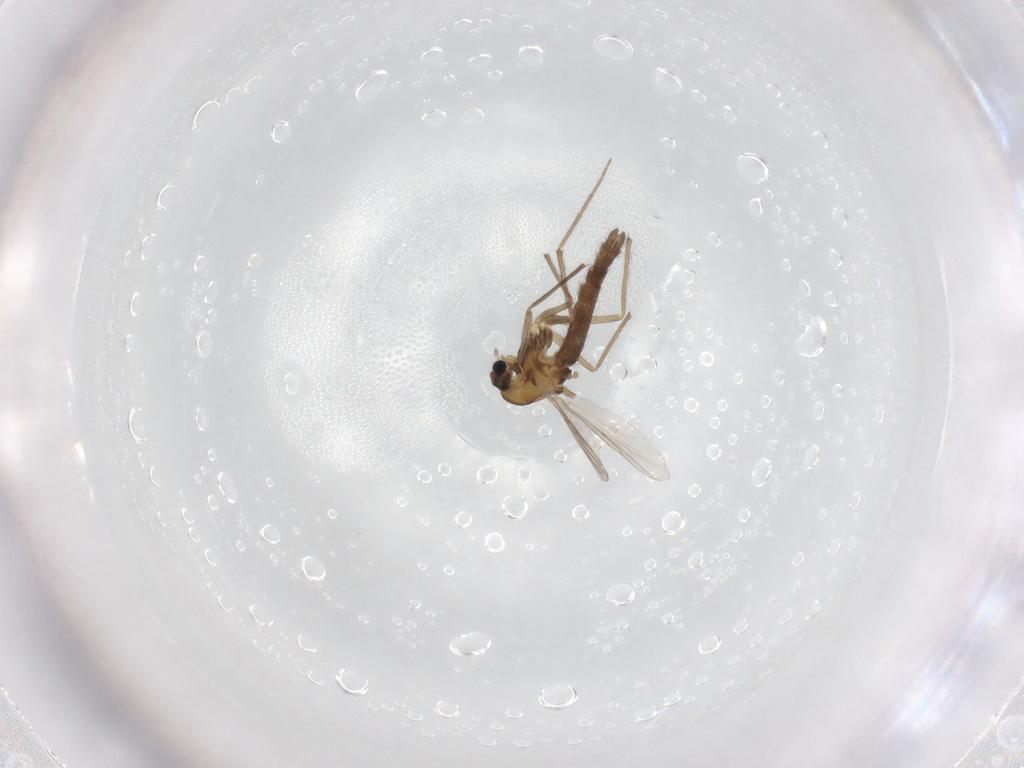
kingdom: Animalia
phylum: Arthropoda
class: Insecta
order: Diptera
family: Chironomidae
